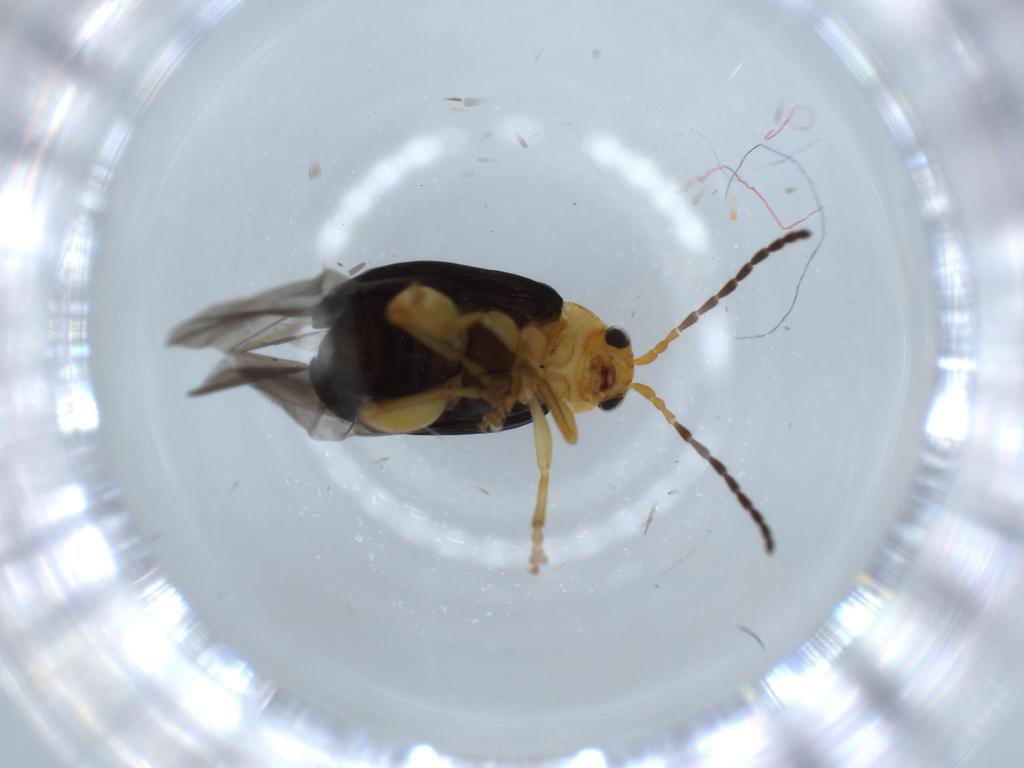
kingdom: Animalia
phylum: Arthropoda
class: Insecta
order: Coleoptera
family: Chrysomelidae
